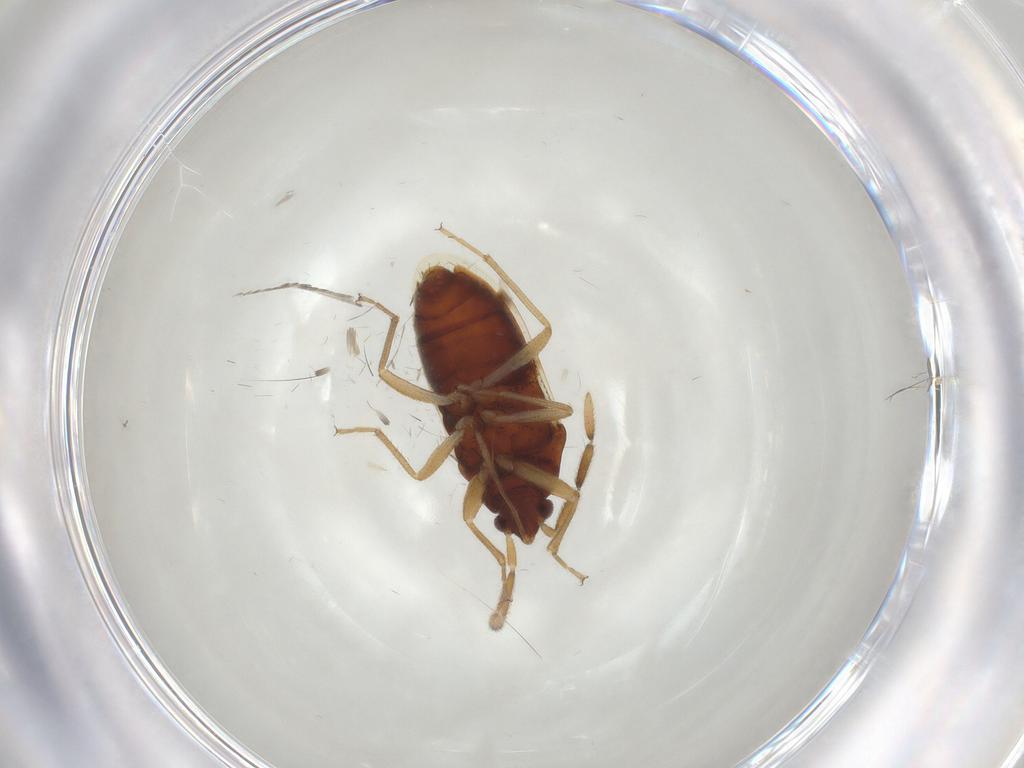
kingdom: Animalia
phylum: Arthropoda
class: Insecta
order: Hemiptera
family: Rhyparochromidae
